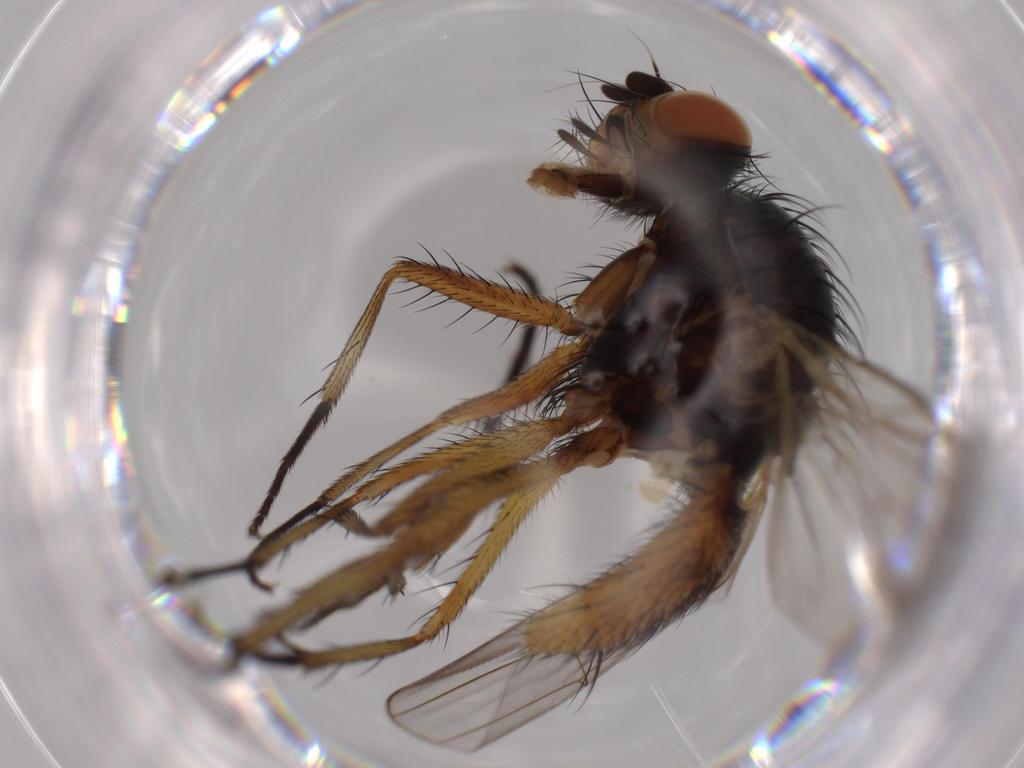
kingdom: Animalia
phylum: Arthropoda
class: Insecta
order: Diptera
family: Anthomyiidae
